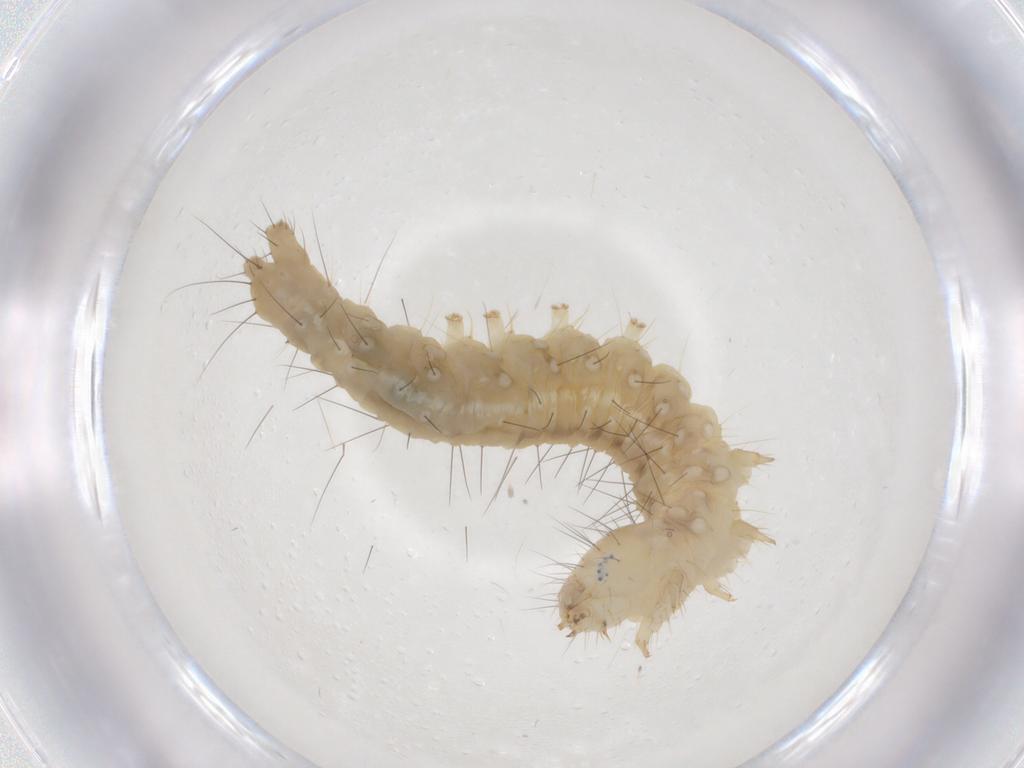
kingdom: Animalia
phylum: Arthropoda
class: Insecta
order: Lepidoptera
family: Gelechiidae
